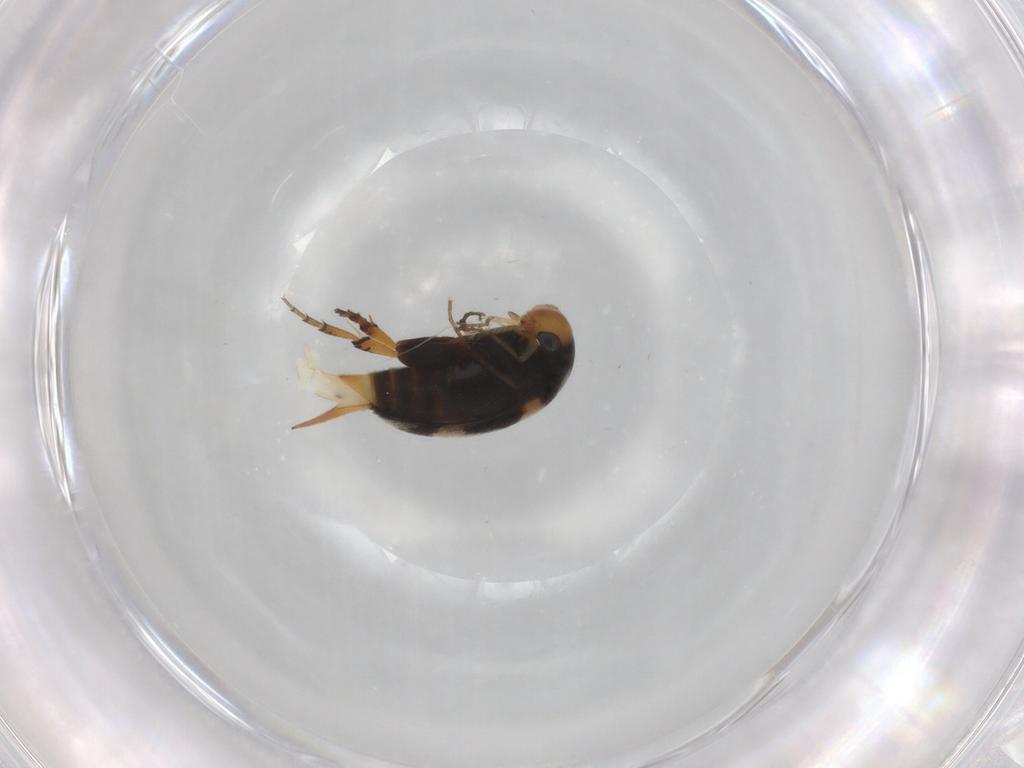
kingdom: Animalia
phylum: Arthropoda
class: Insecta
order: Coleoptera
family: Mordellidae
